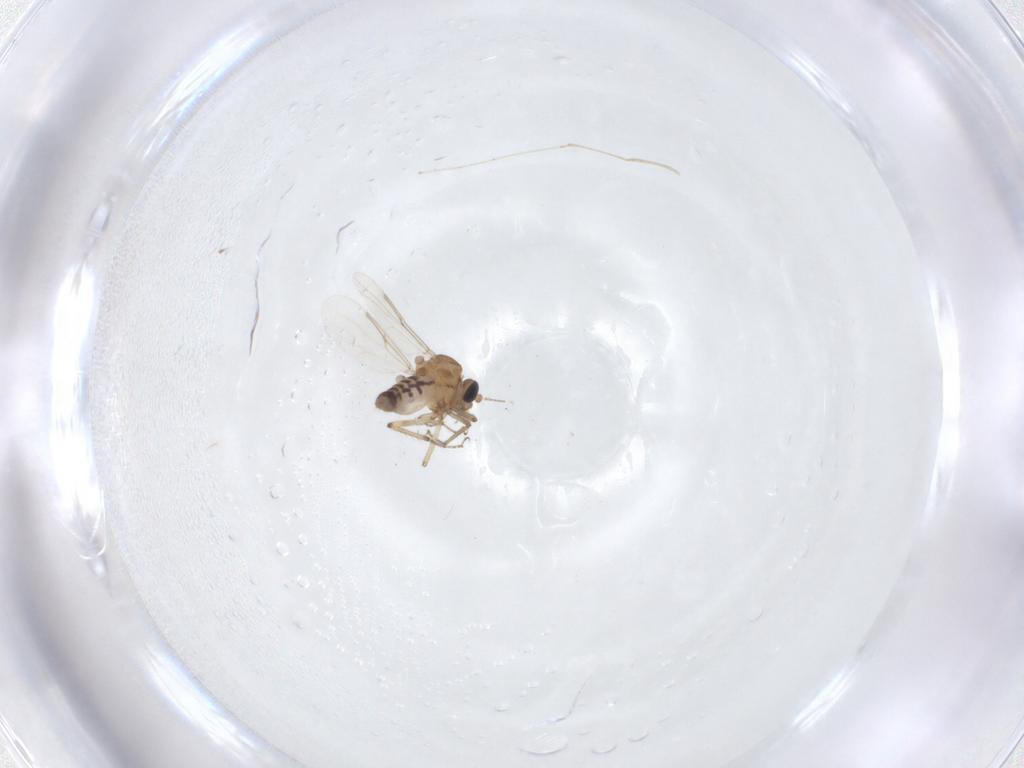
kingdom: Animalia
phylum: Arthropoda
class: Insecta
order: Diptera
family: Ceratopogonidae
